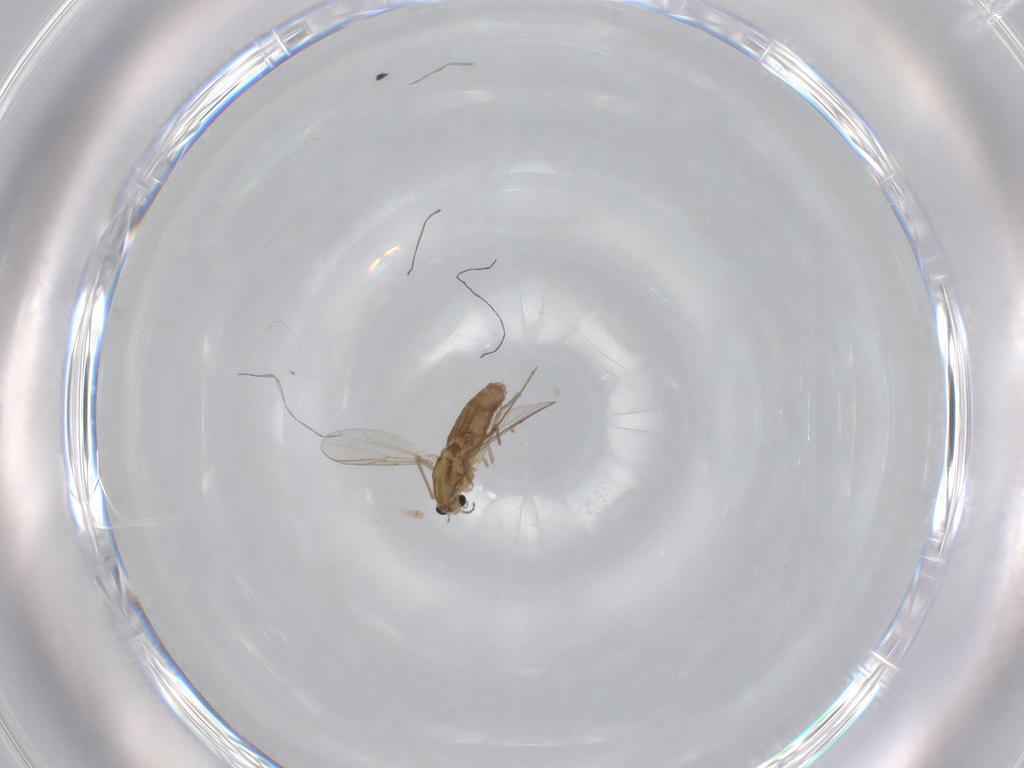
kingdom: Animalia
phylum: Arthropoda
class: Insecta
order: Diptera
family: Chironomidae
